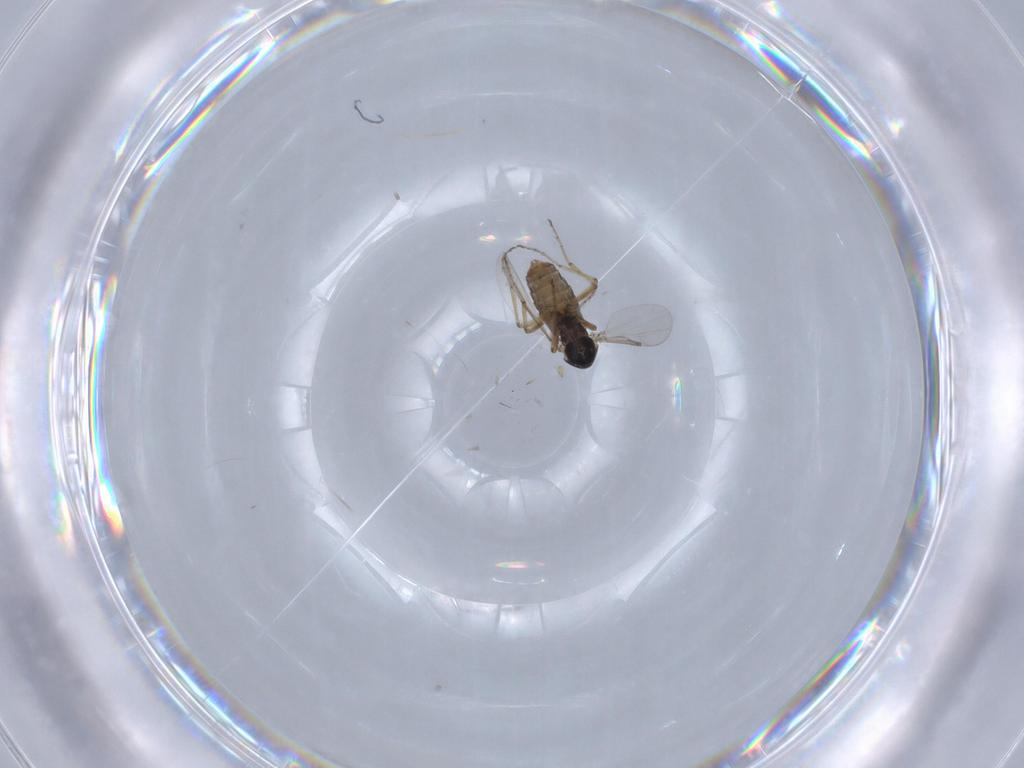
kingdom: Animalia
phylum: Arthropoda
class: Insecta
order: Diptera
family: Ceratopogonidae
